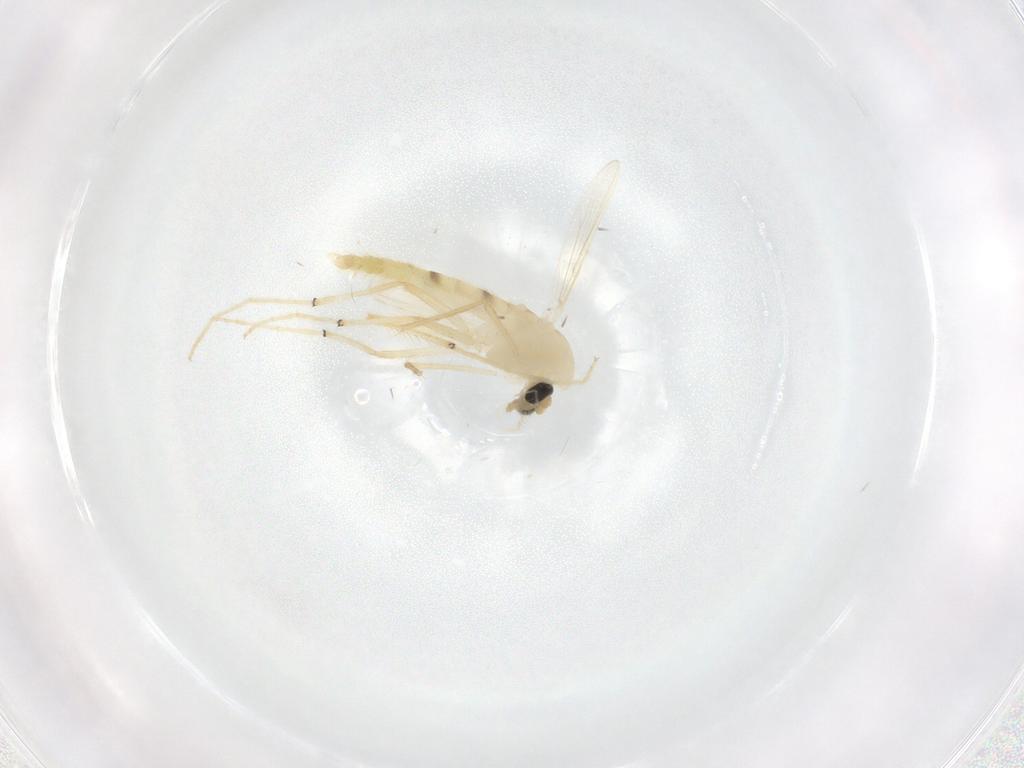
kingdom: Animalia
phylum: Arthropoda
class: Insecta
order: Diptera
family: Chironomidae
